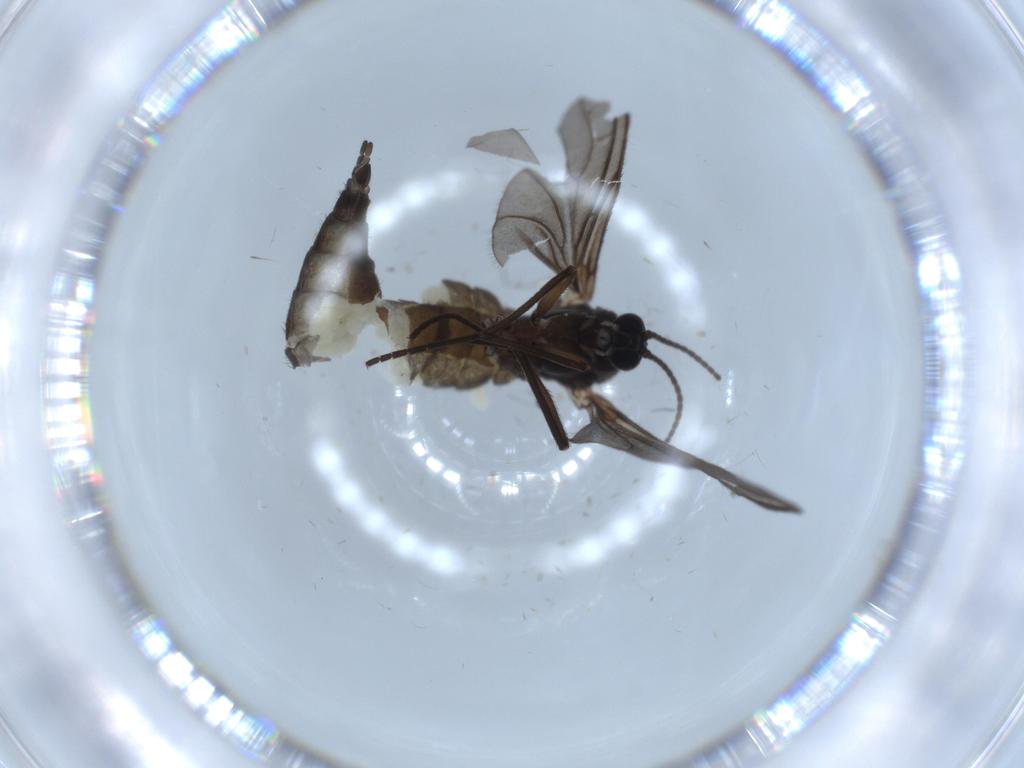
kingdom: Animalia
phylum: Arthropoda
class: Insecta
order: Diptera
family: Sciaridae
